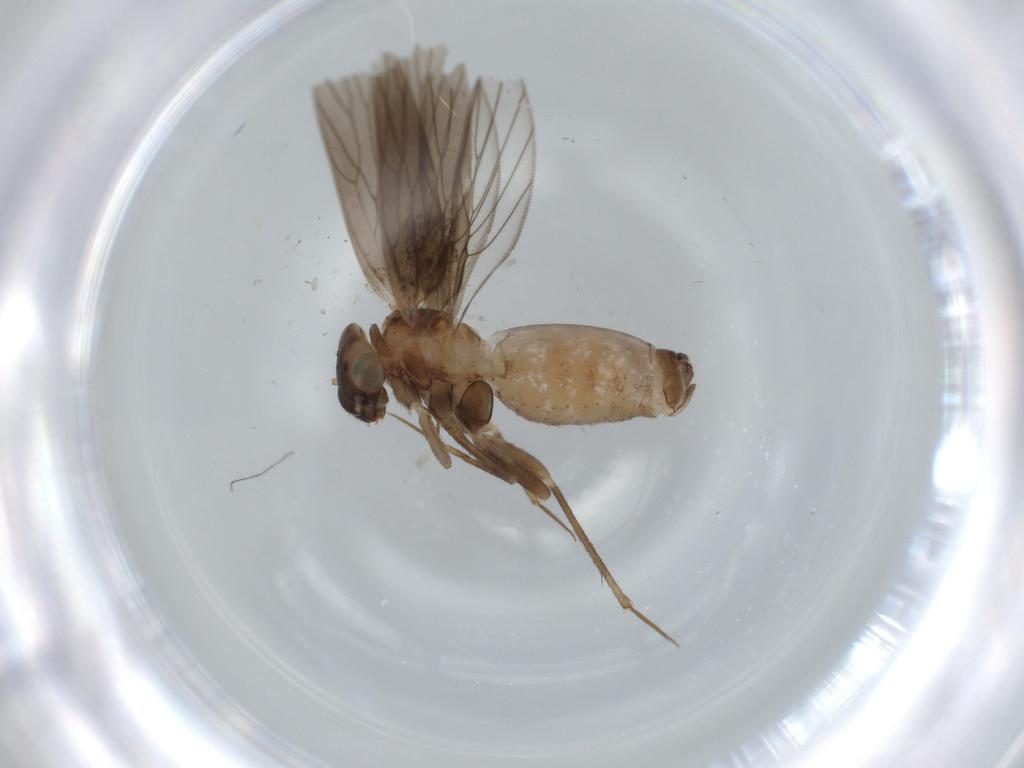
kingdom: Animalia
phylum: Arthropoda
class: Insecta
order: Psocodea
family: Lepidopsocidae
